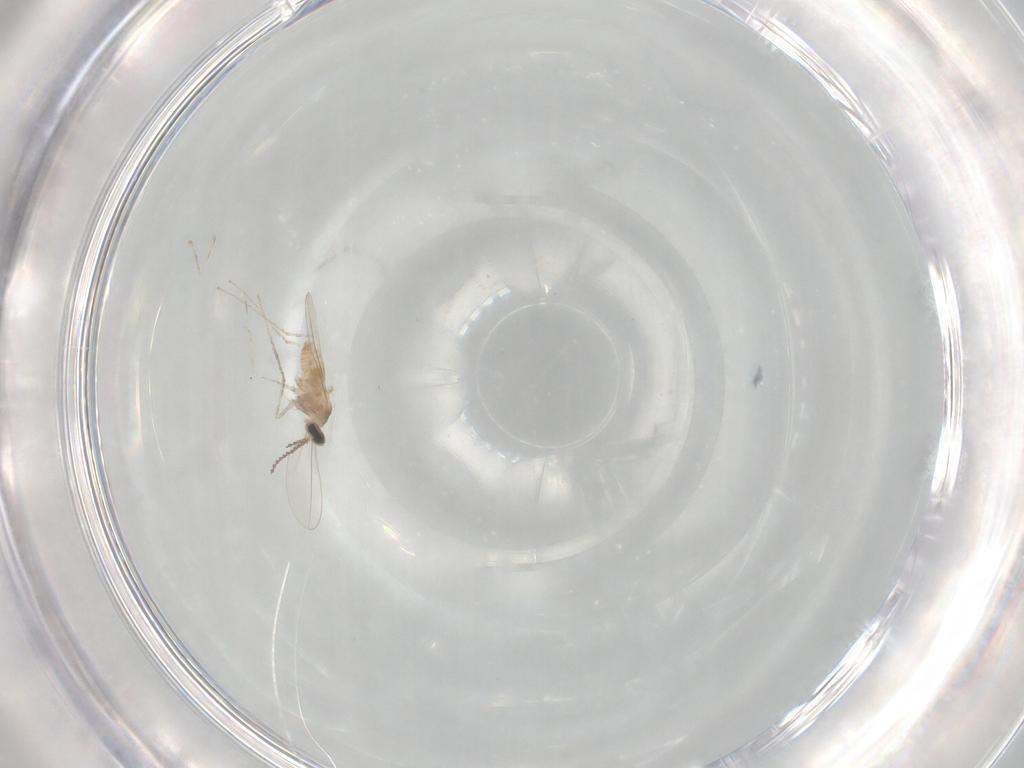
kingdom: Animalia
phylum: Arthropoda
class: Insecta
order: Diptera
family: Cecidomyiidae
